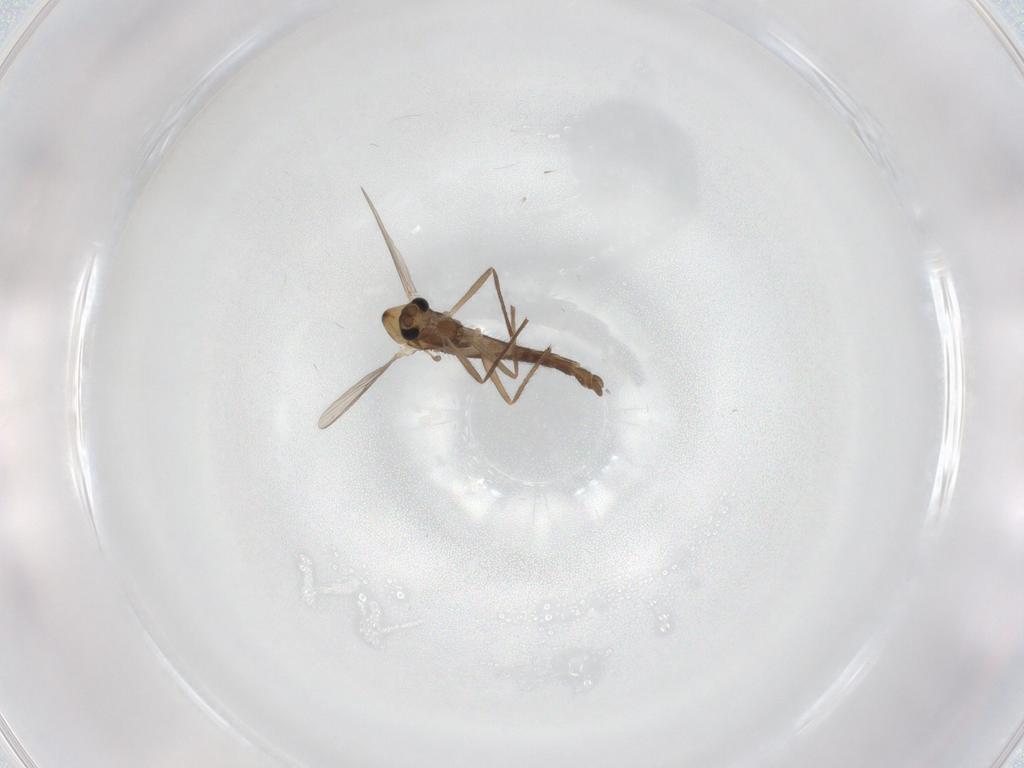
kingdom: Animalia
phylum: Arthropoda
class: Insecta
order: Diptera
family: Chironomidae
